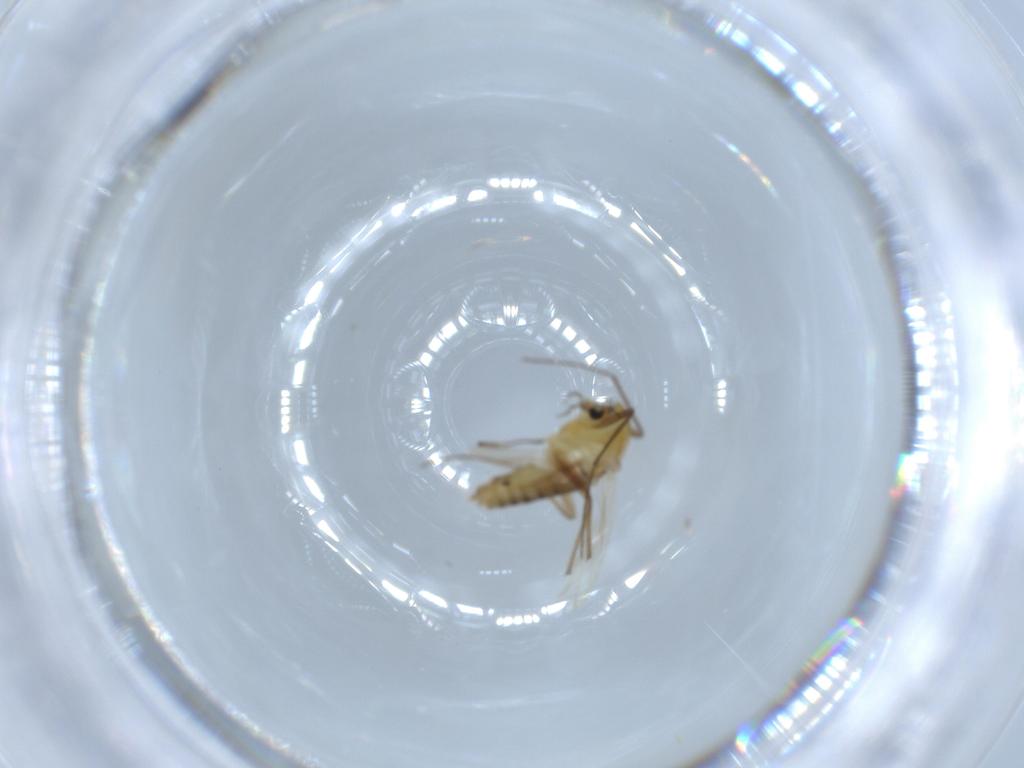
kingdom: Animalia
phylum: Arthropoda
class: Insecta
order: Diptera
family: Chironomidae
